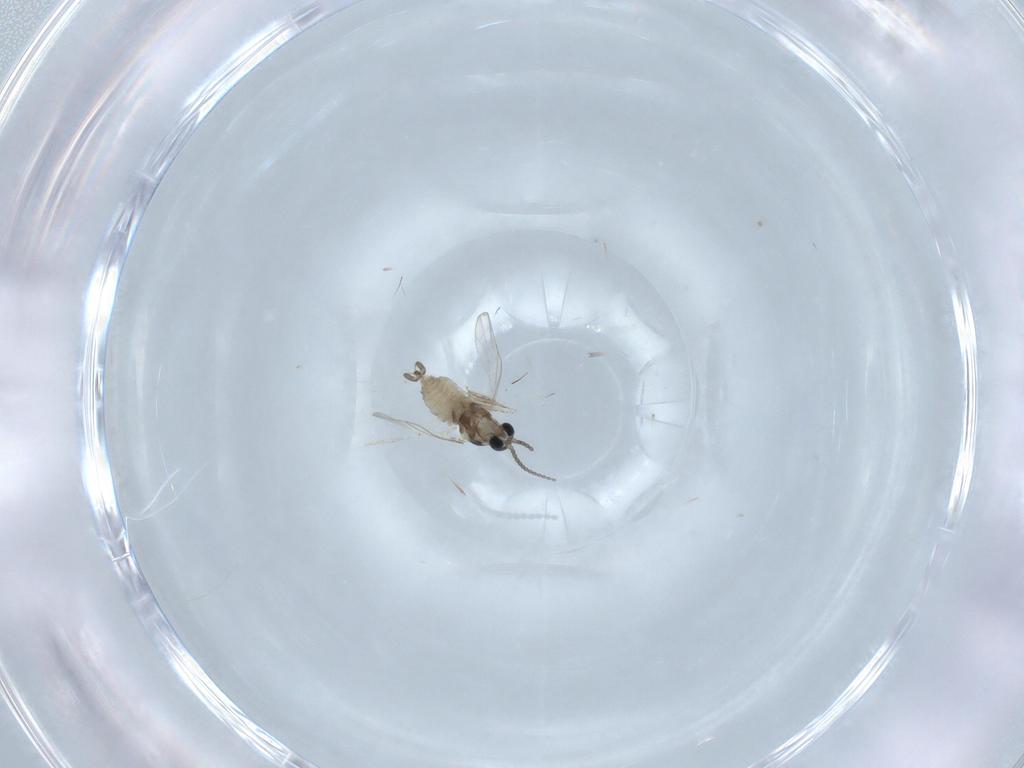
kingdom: Animalia
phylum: Arthropoda
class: Insecta
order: Diptera
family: Cecidomyiidae
